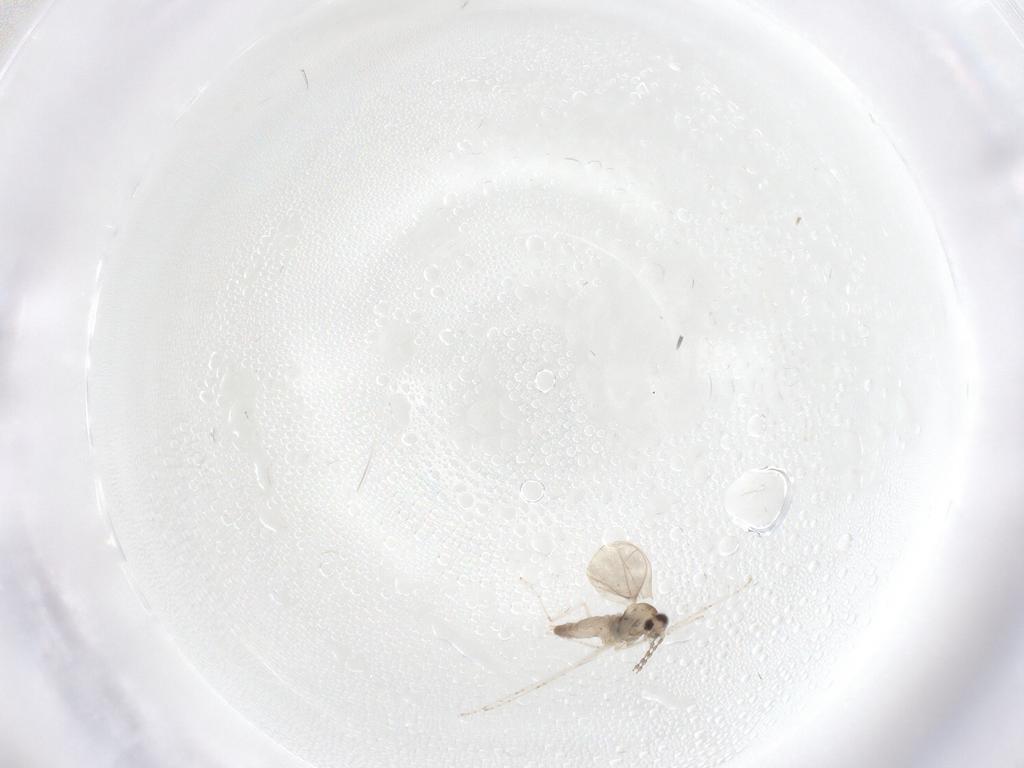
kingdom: Animalia
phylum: Arthropoda
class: Insecta
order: Diptera
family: Cecidomyiidae
